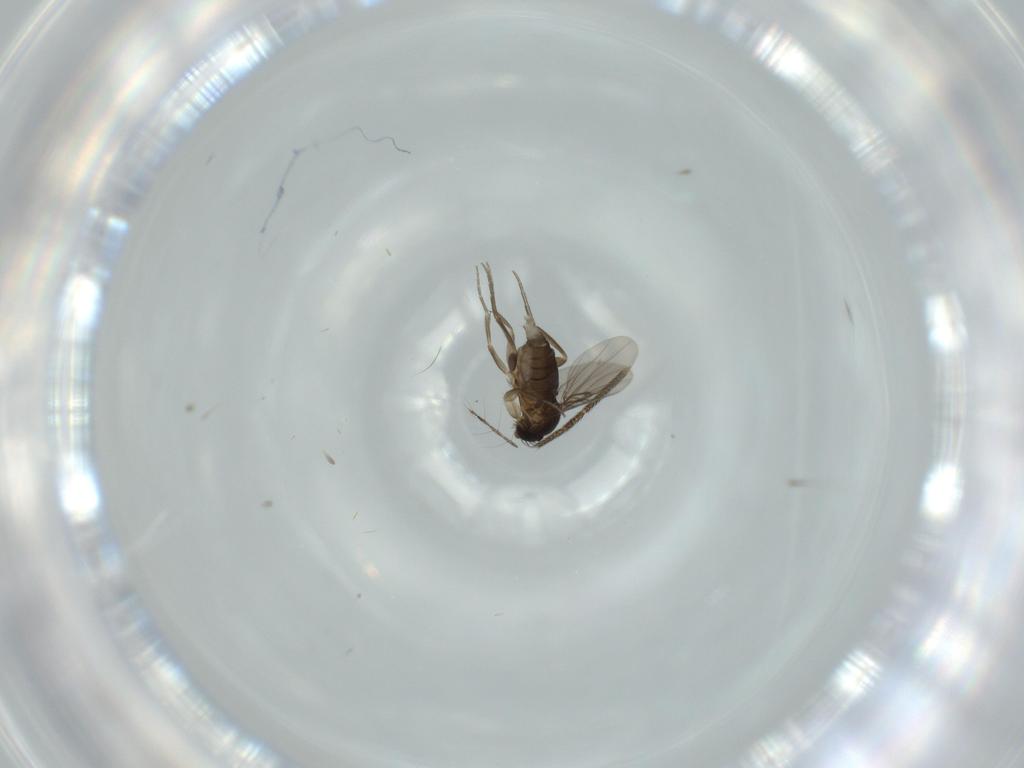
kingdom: Animalia
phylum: Arthropoda
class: Insecta
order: Diptera
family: Dolichopodidae
